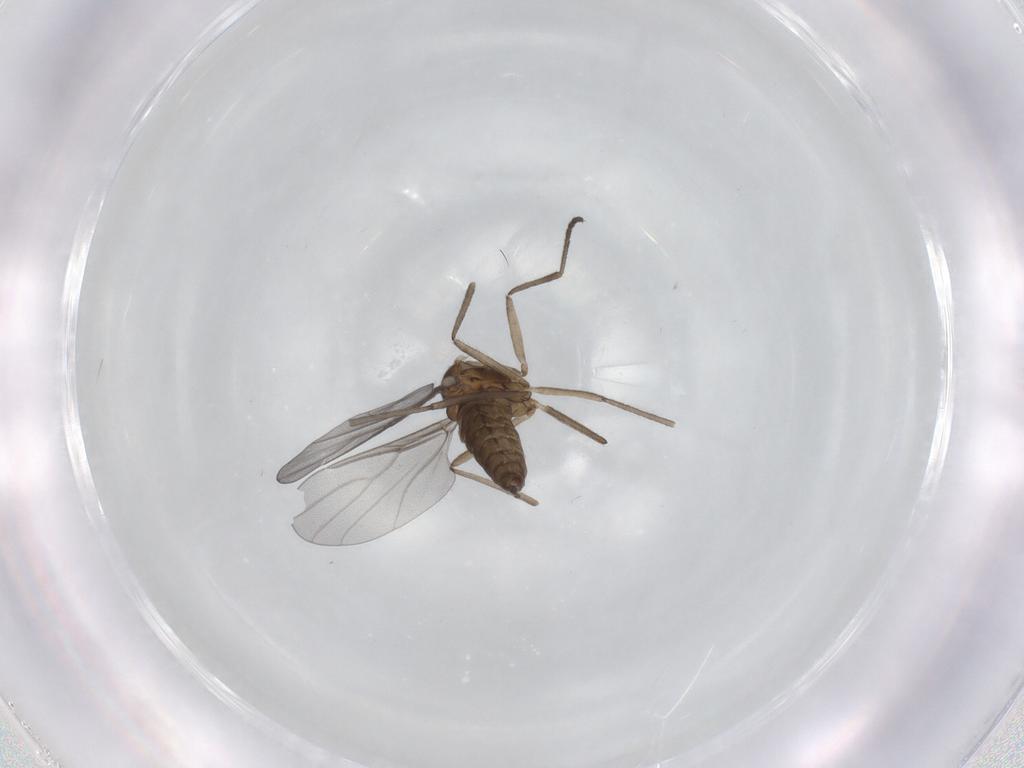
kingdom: Animalia
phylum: Arthropoda
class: Insecta
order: Diptera
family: Cecidomyiidae
